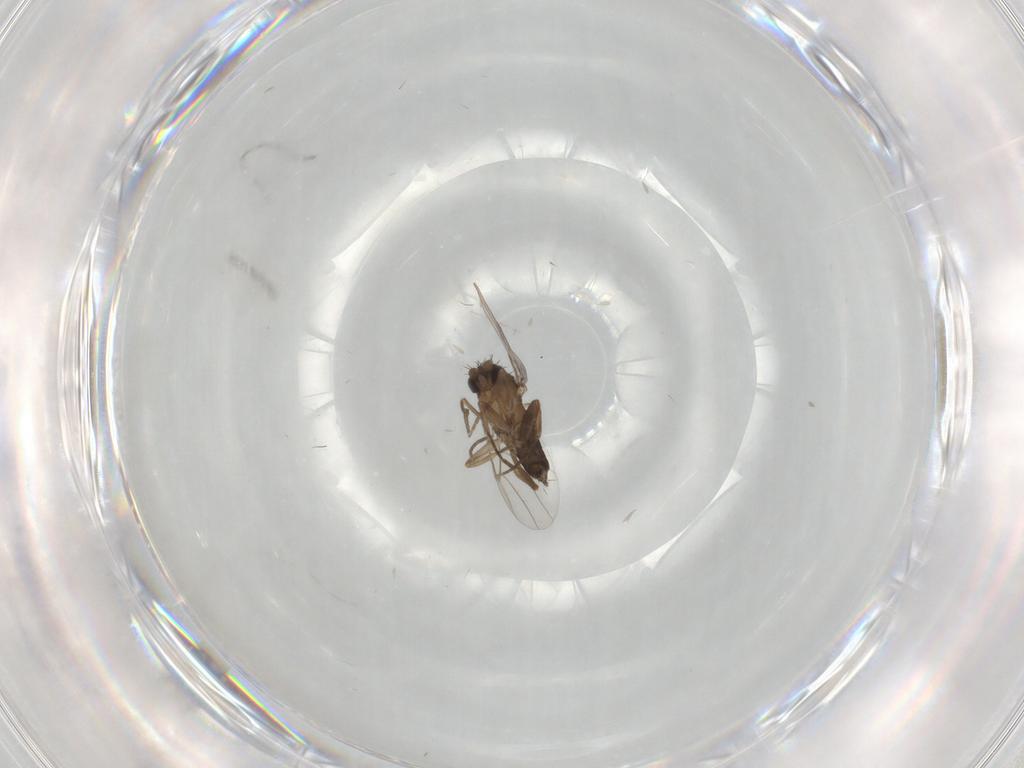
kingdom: Animalia
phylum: Arthropoda
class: Insecta
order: Diptera
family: Phoridae
